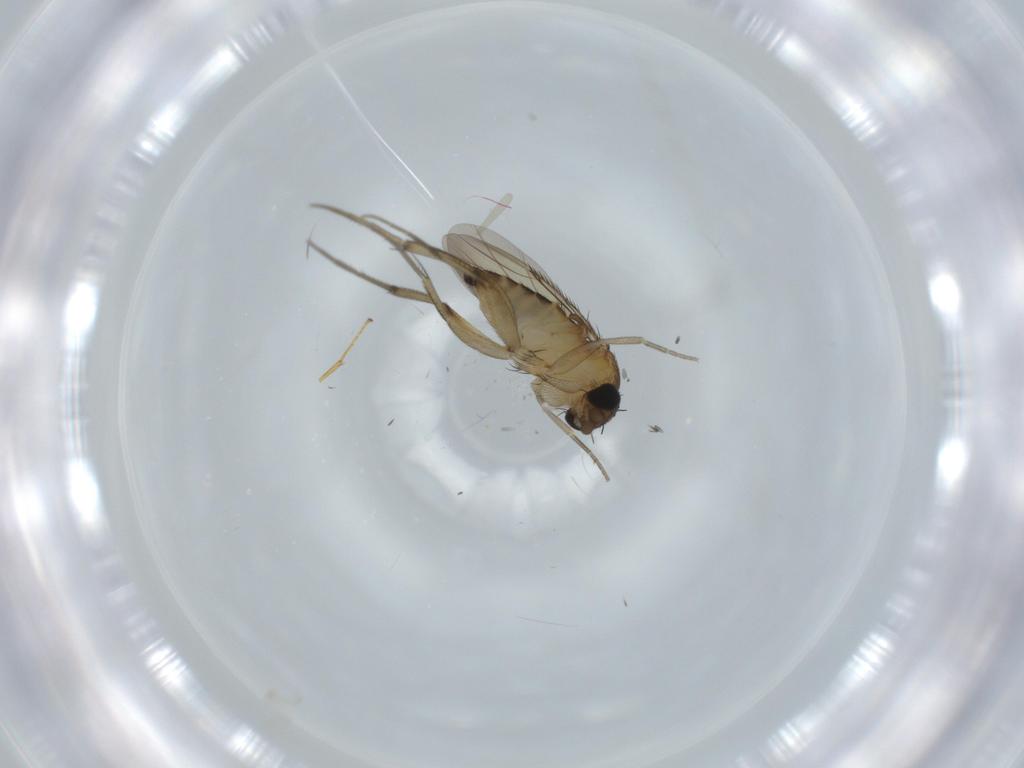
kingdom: Animalia
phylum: Arthropoda
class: Insecta
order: Diptera
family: Phoridae
